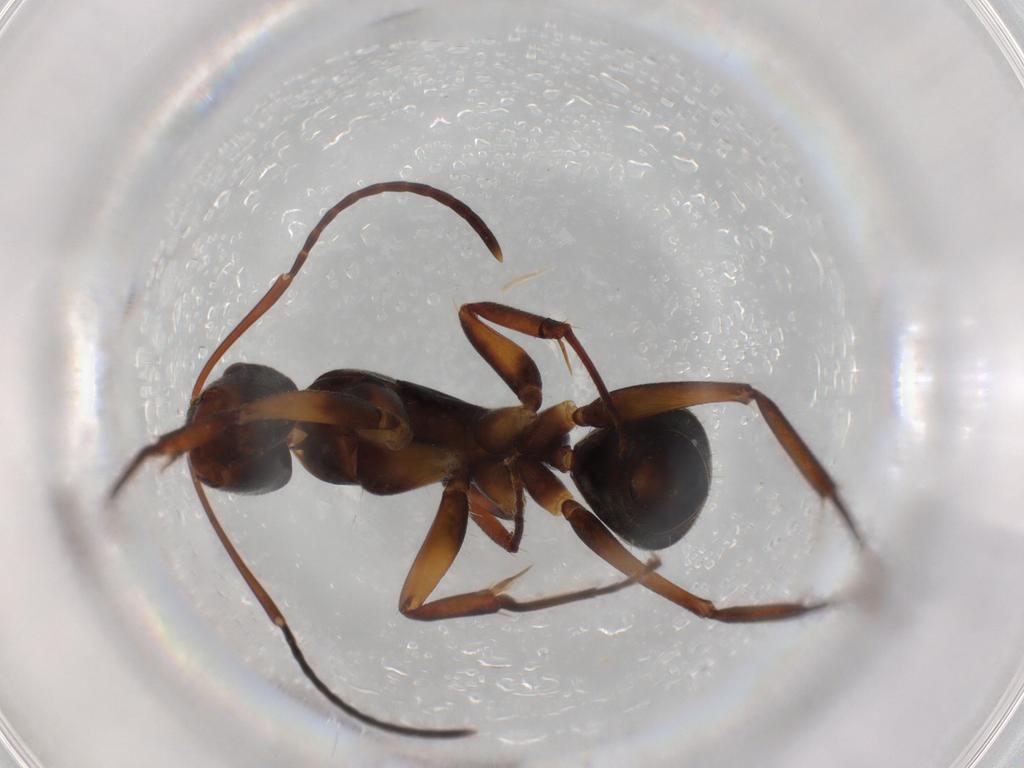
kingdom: Animalia
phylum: Arthropoda
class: Insecta
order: Hymenoptera
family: Formicidae
